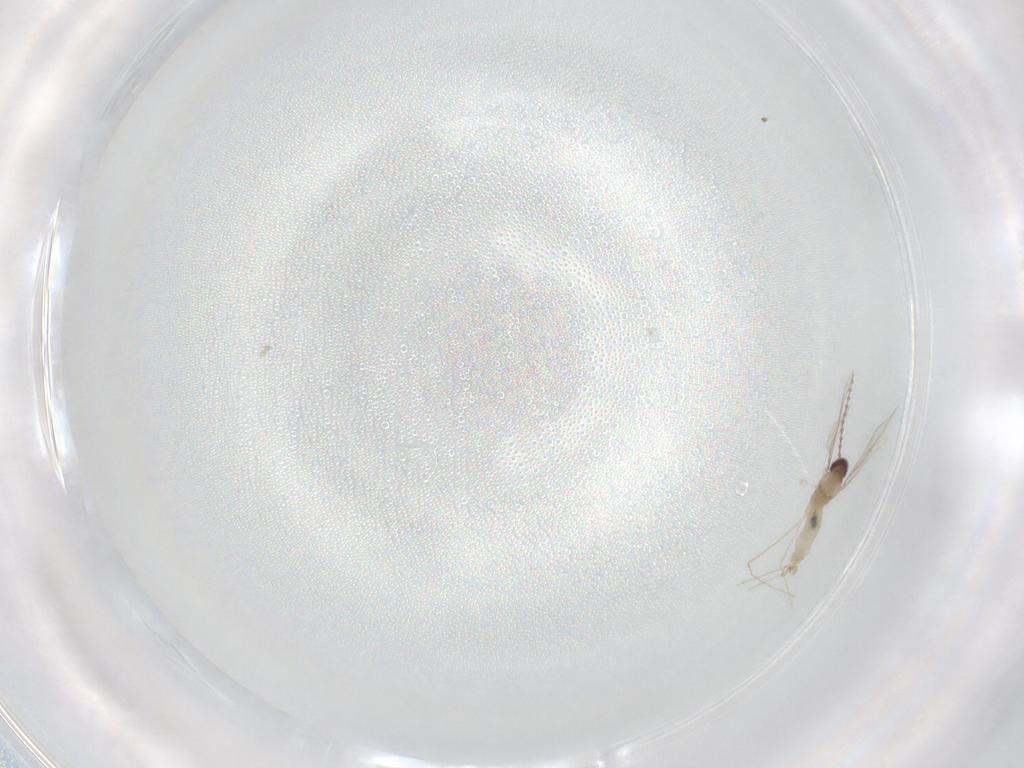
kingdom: Animalia
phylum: Arthropoda
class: Insecta
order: Diptera
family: Cecidomyiidae
